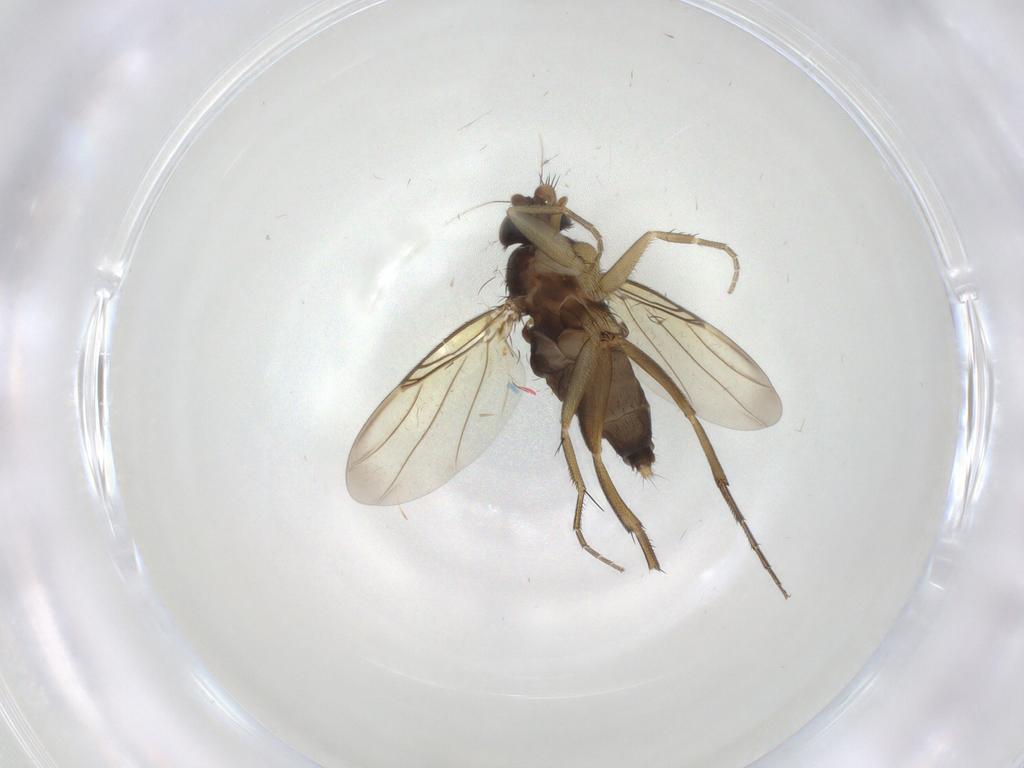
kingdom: Animalia
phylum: Arthropoda
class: Insecta
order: Diptera
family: Phoridae
